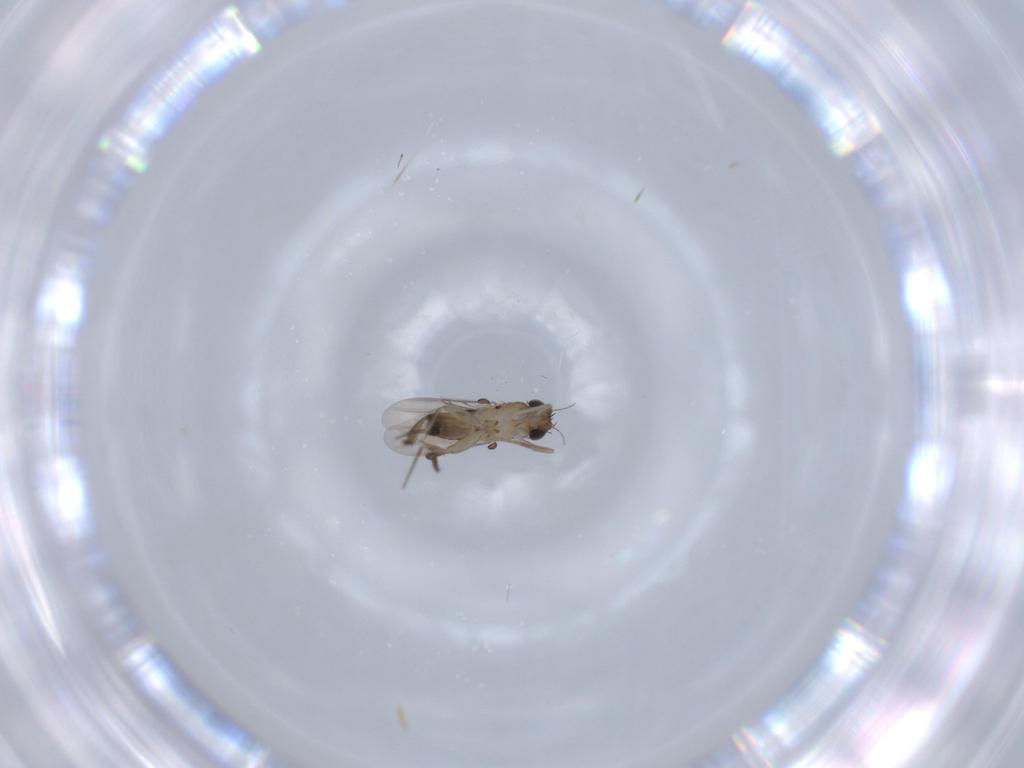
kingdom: Animalia
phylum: Arthropoda
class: Insecta
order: Diptera
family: Phoridae
